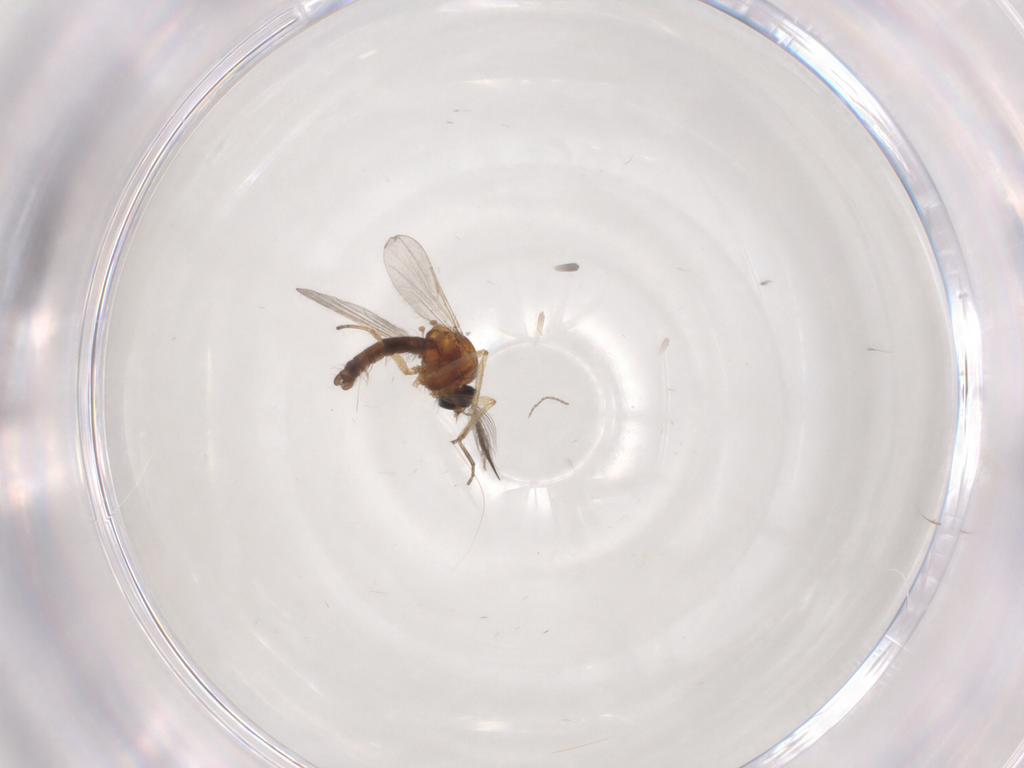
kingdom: Animalia
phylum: Arthropoda
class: Insecta
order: Diptera
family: Ceratopogonidae
